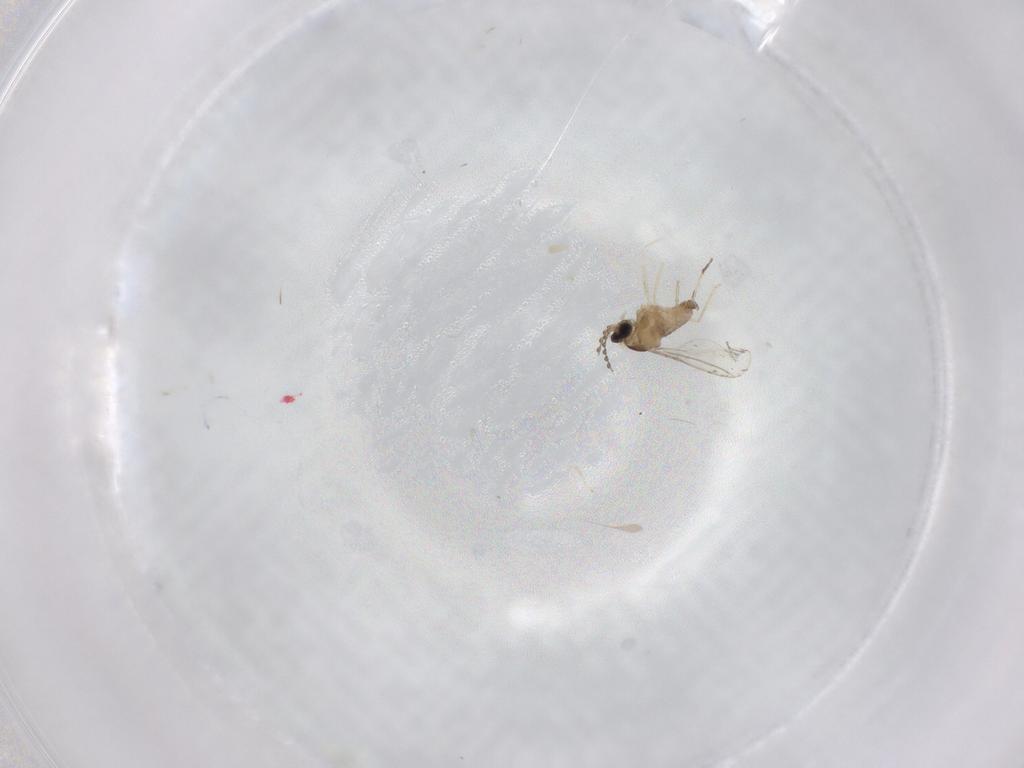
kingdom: Animalia
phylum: Arthropoda
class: Insecta
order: Diptera
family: Cecidomyiidae
